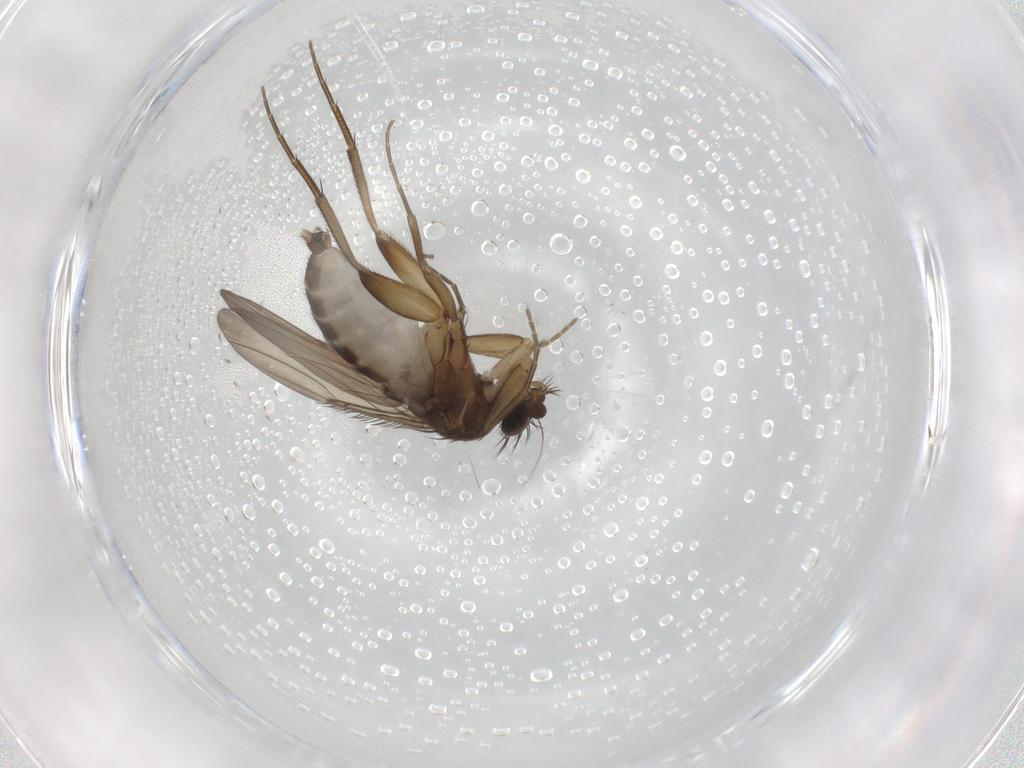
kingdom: Animalia
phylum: Arthropoda
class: Insecta
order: Diptera
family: Phoridae
